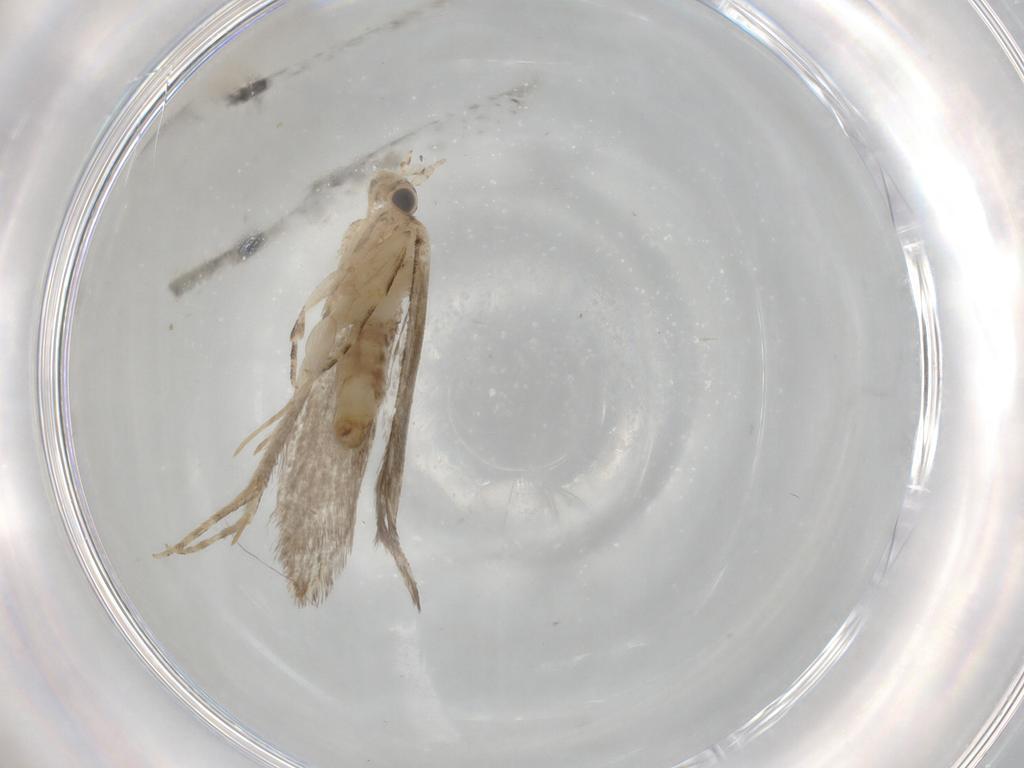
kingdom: Animalia
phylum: Arthropoda
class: Insecta
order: Lepidoptera
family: Tineidae
